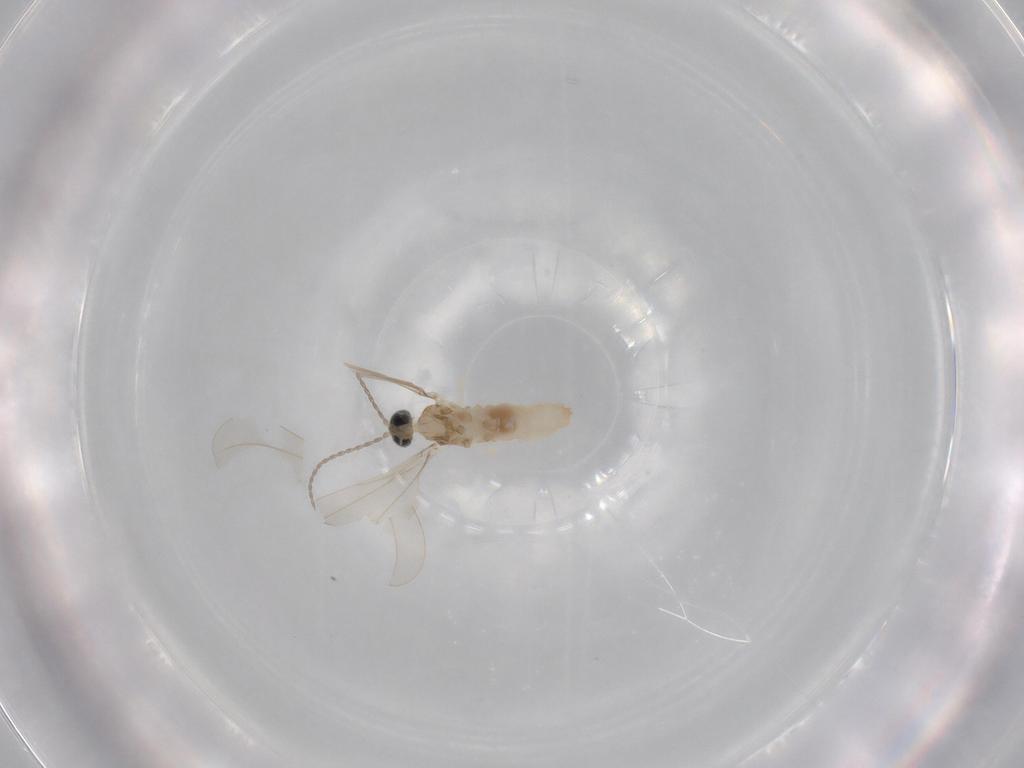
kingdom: Animalia
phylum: Arthropoda
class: Insecta
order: Diptera
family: Cecidomyiidae
